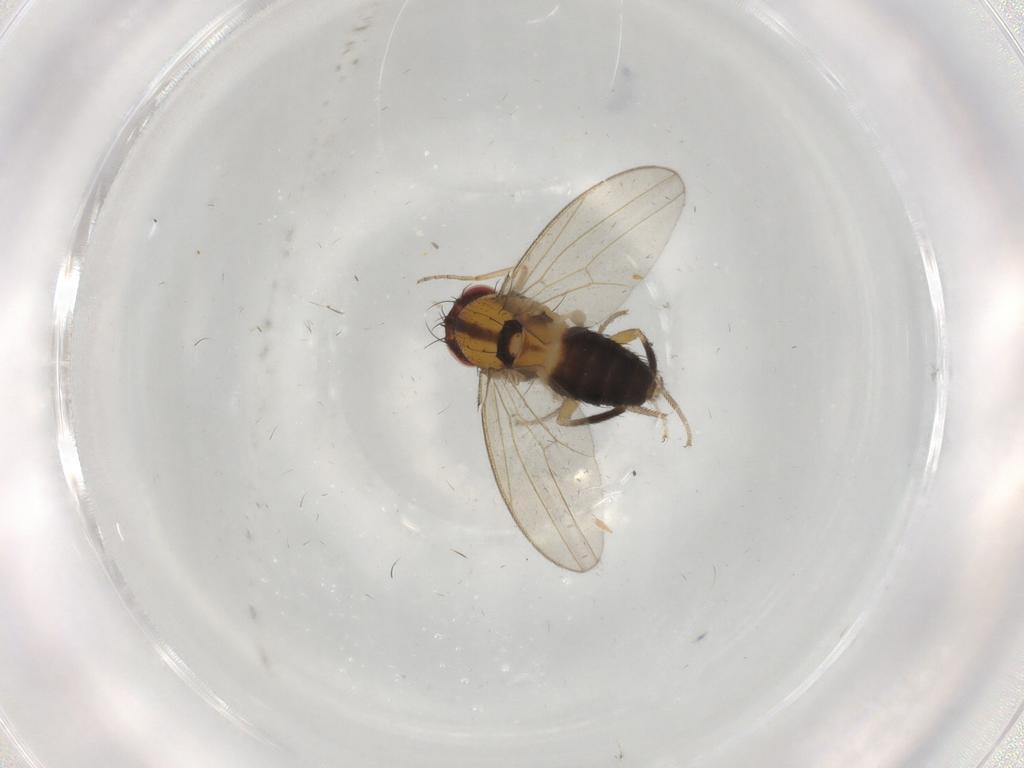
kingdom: Animalia
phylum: Arthropoda
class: Insecta
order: Diptera
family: Drosophilidae
